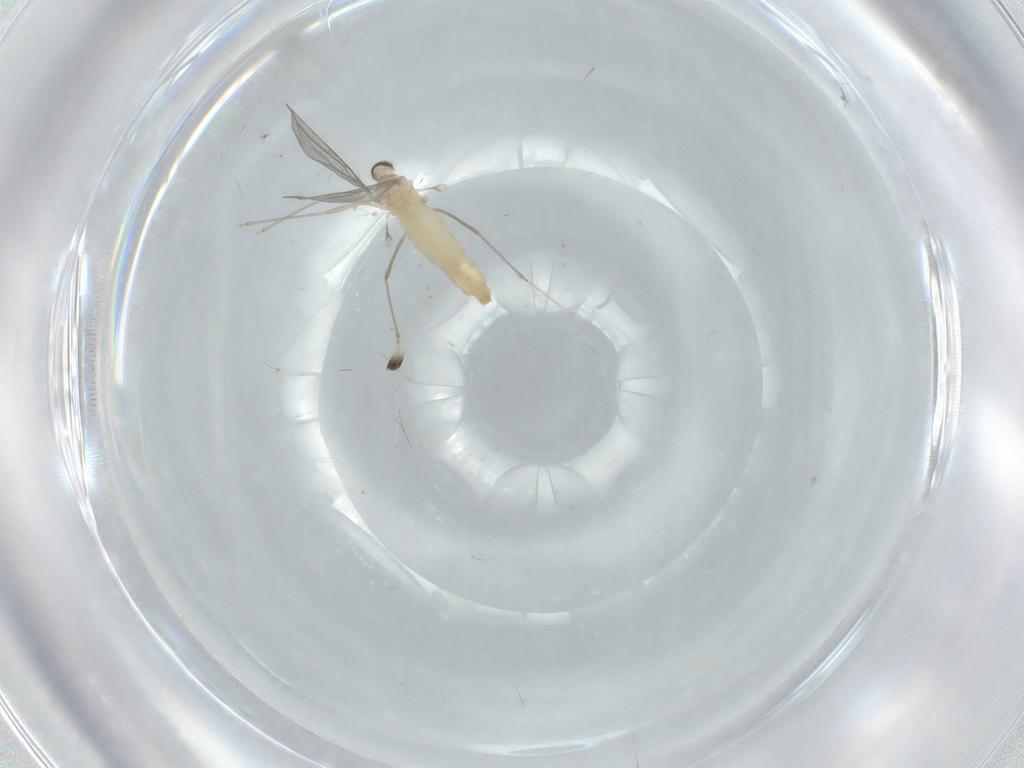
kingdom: Animalia
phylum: Arthropoda
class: Insecta
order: Diptera
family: Cecidomyiidae
